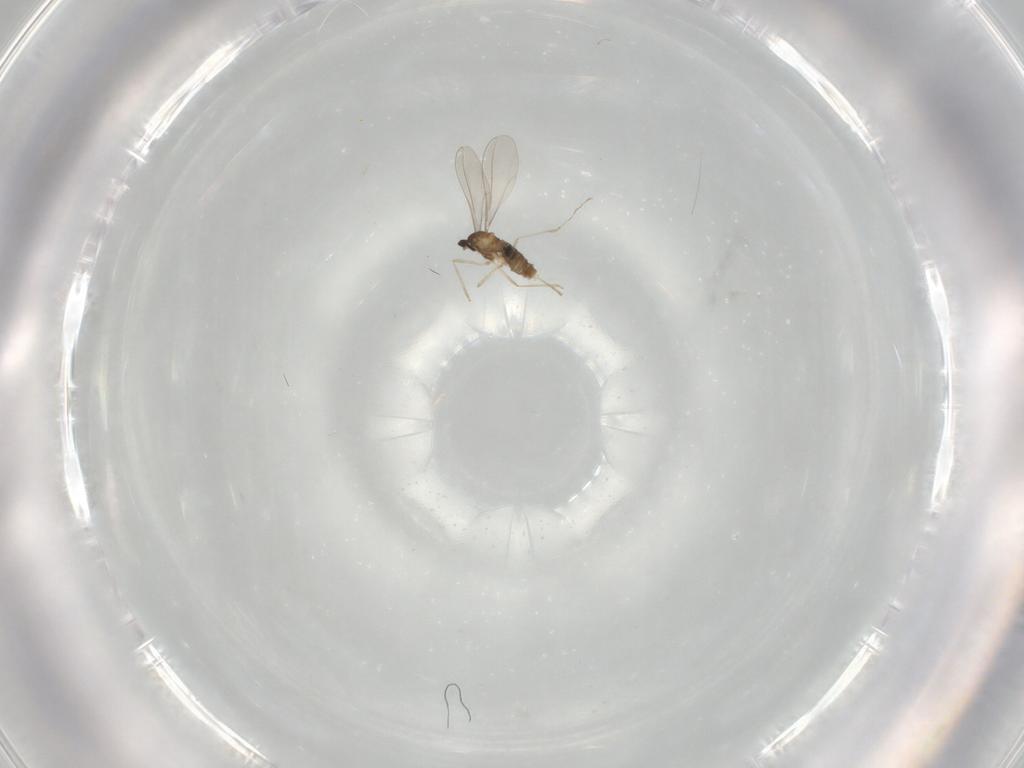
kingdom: Animalia
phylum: Arthropoda
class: Insecta
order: Diptera
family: Chironomidae
